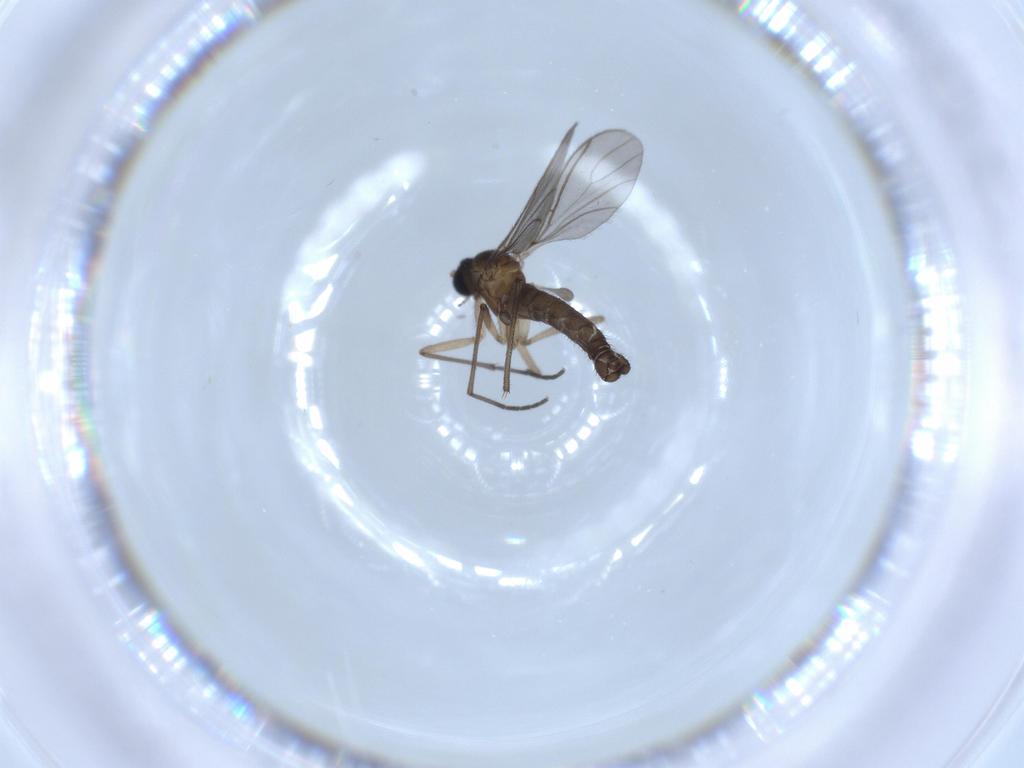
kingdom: Animalia
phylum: Arthropoda
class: Insecta
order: Diptera
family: Sciaridae
